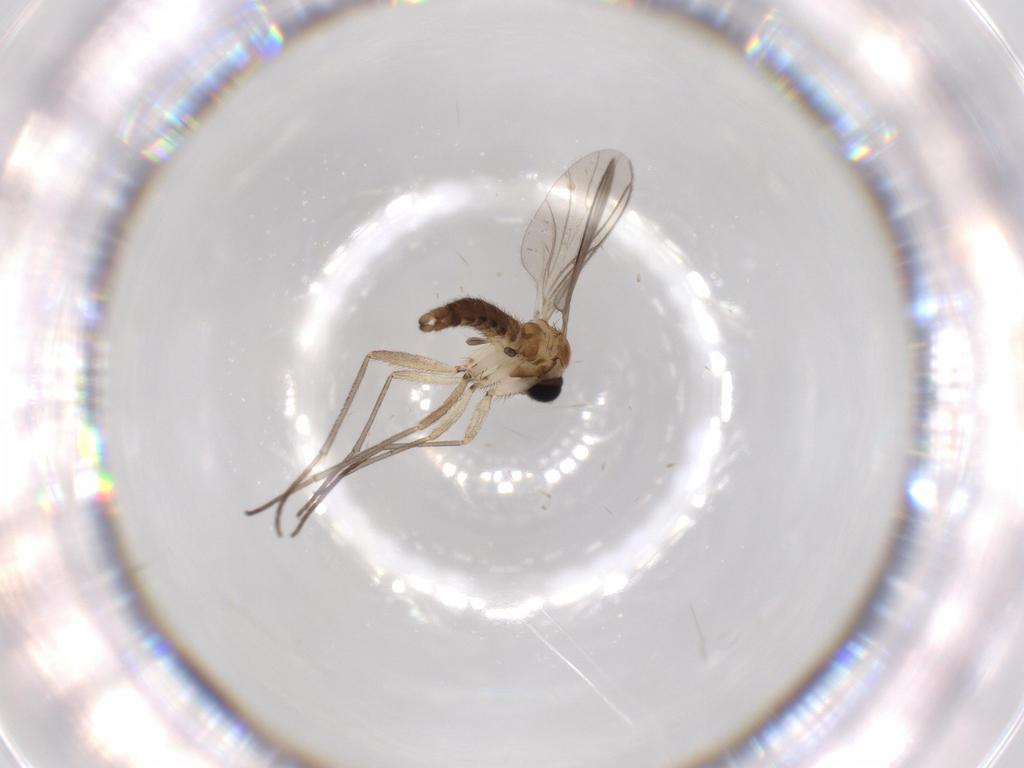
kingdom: Animalia
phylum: Arthropoda
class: Insecta
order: Diptera
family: Sciaridae
